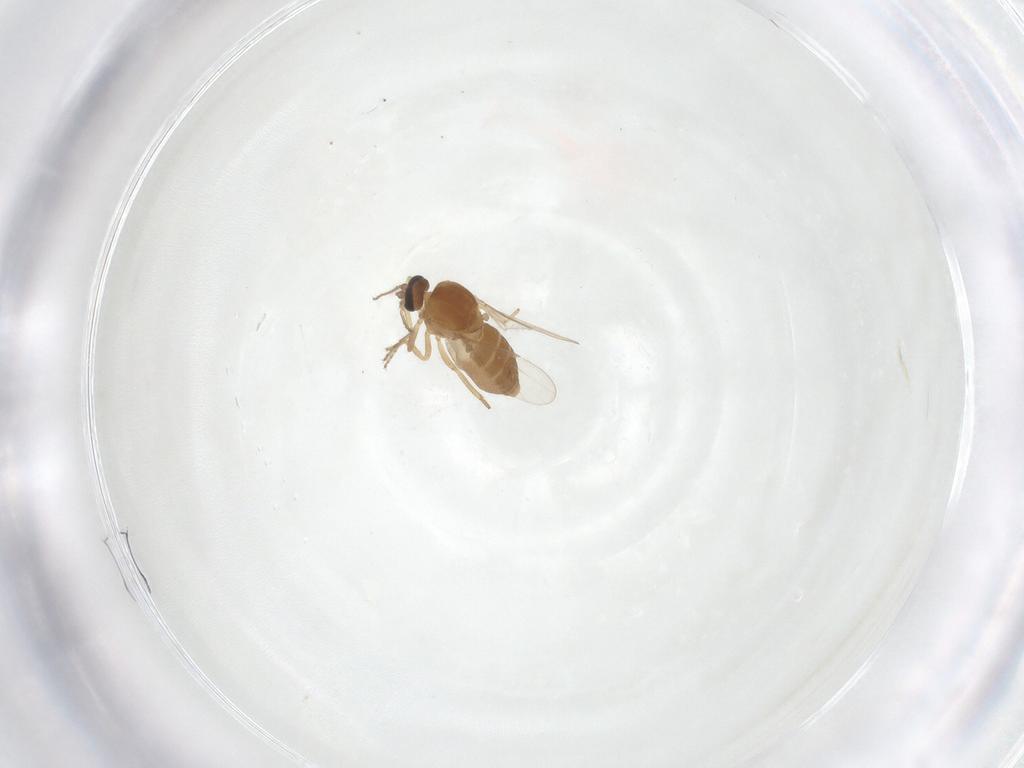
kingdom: Animalia
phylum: Arthropoda
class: Insecta
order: Diptera
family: Ceratopogonidae
